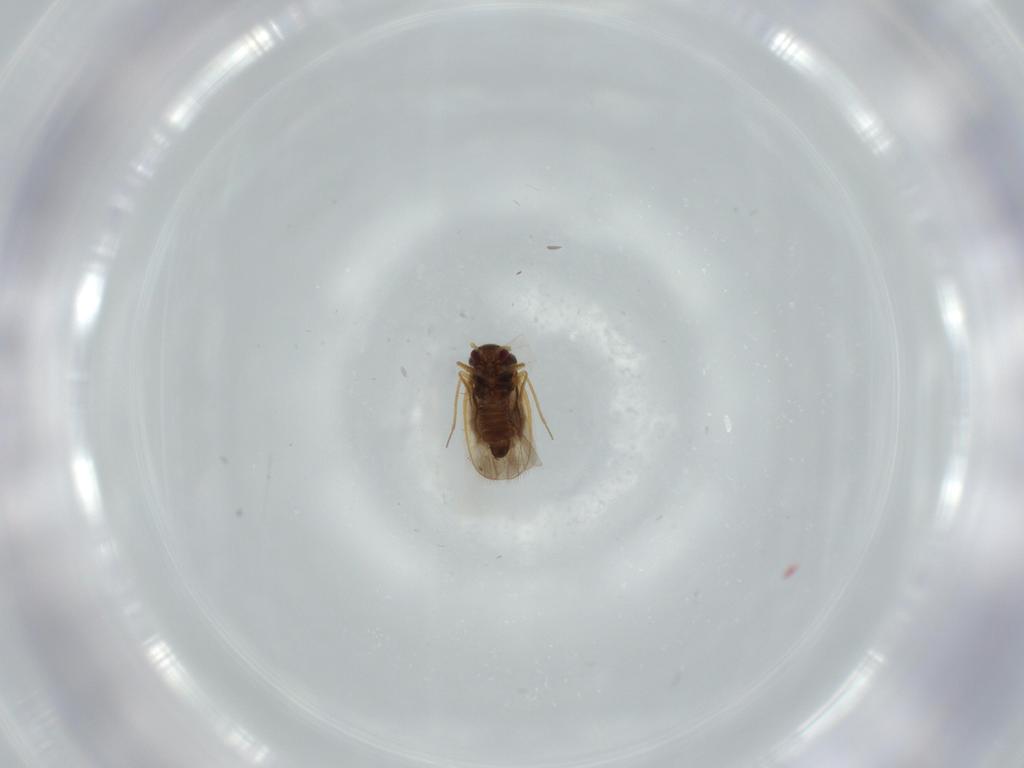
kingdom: Animalia
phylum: Arthropoda
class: Insecta
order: Hemiptera
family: Schizopteridae
